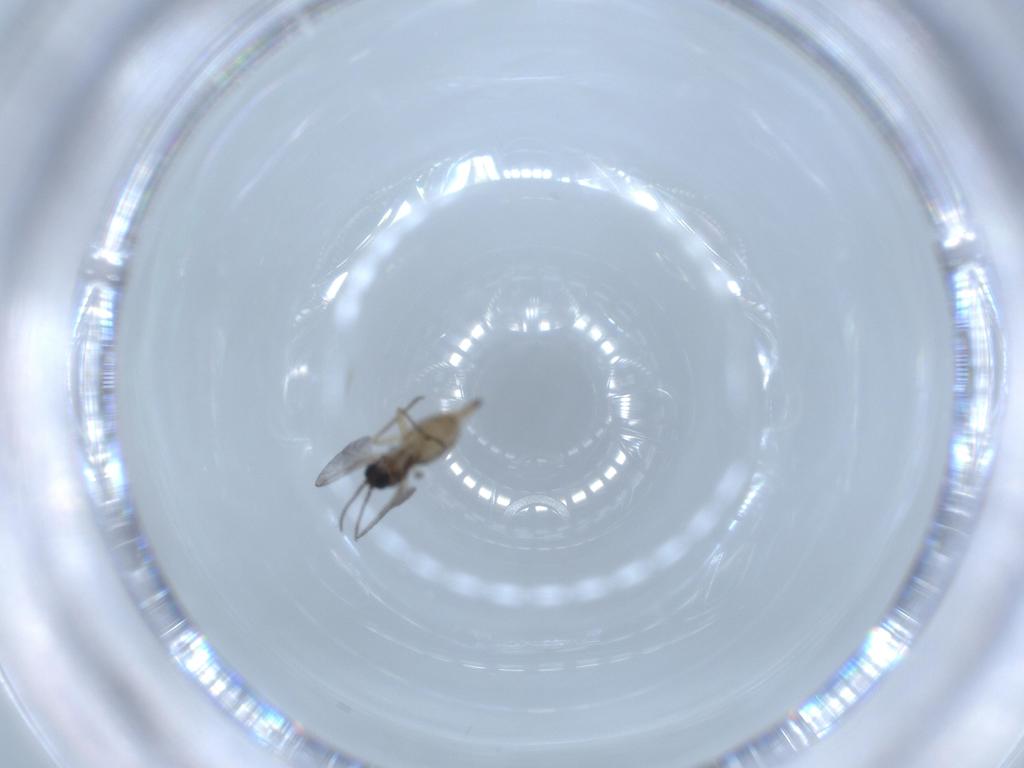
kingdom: Animalia
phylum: Arthropoda
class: Insecta
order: Diptera
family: Sciaridae
